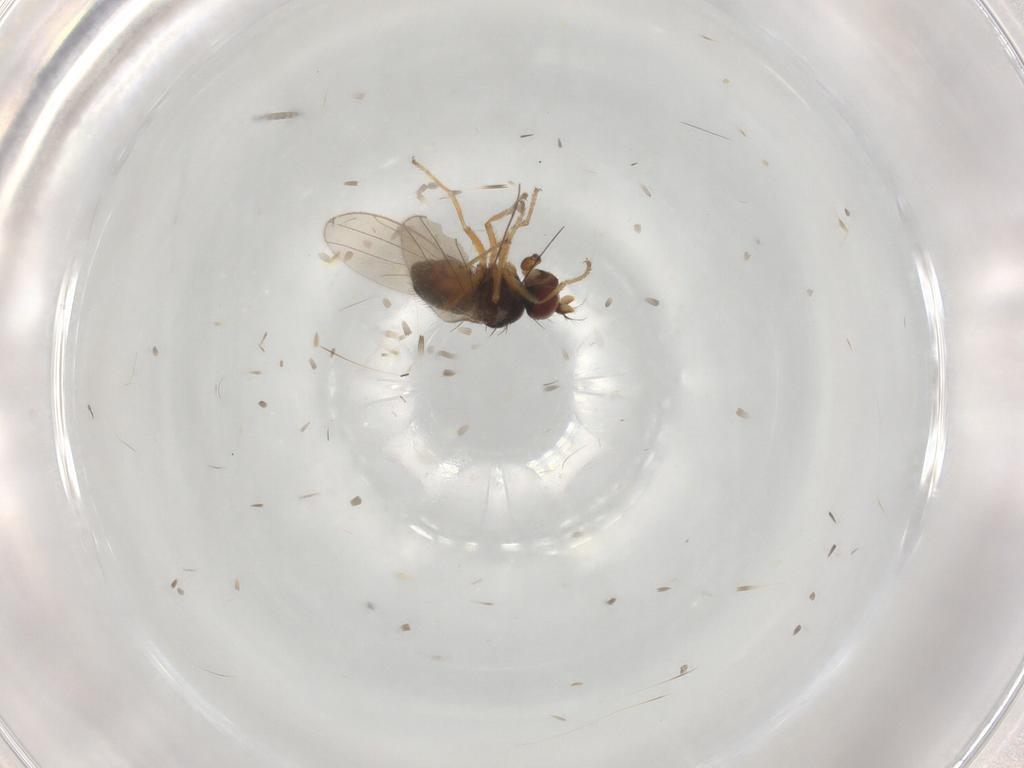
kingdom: Animalia
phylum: Arthropoda
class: Insecta
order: Diptera
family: Ephydridae
